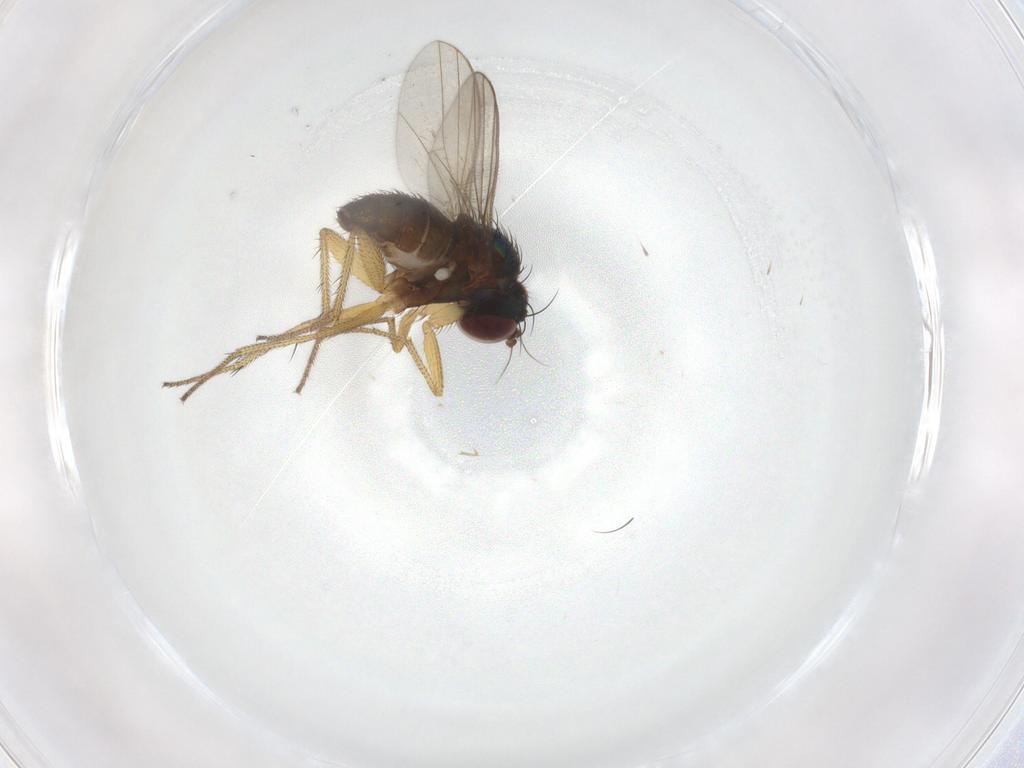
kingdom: Animalia
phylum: Arthropoda
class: Insecta
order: Diptera
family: Dolichopodidae
